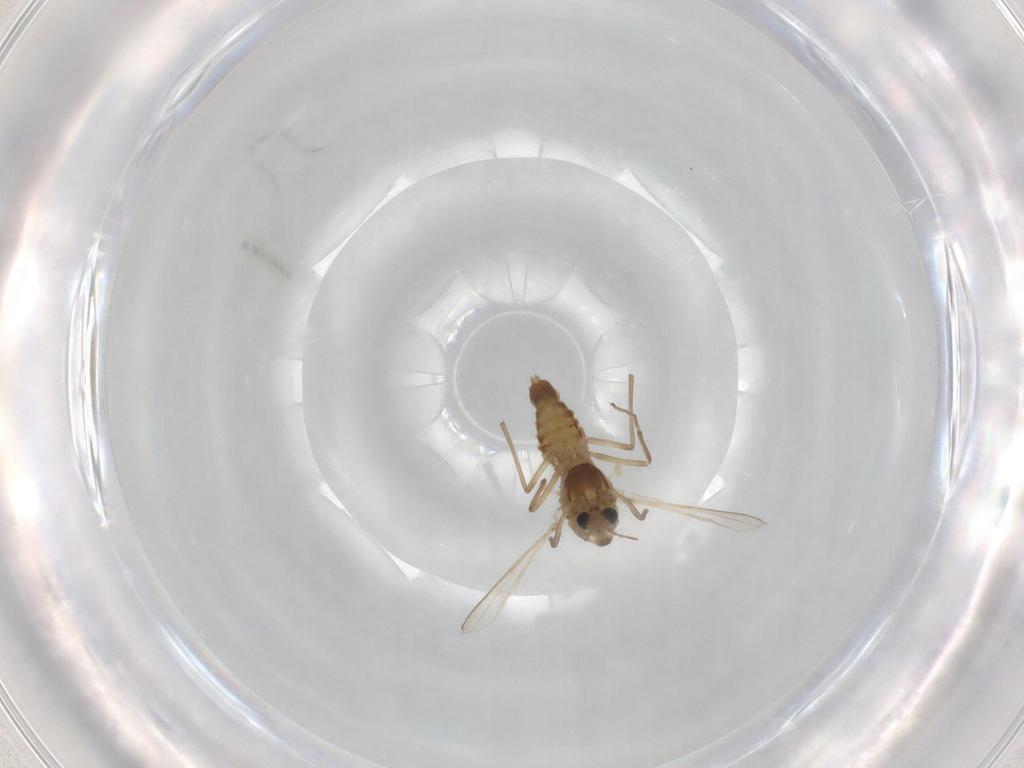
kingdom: Animalia
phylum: Arthropoda
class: Insecta
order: Diptera
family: Chironomidae
